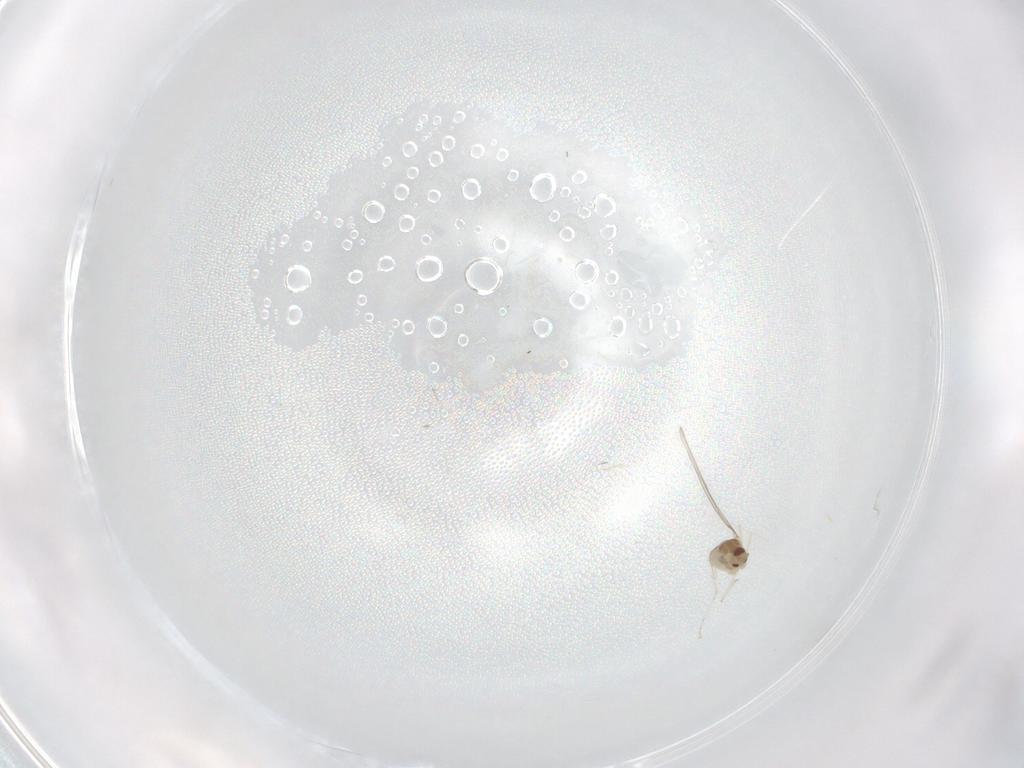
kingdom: Animalia
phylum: Arthropoda
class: Insecta
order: Diptera
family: Cecidomyiidae
